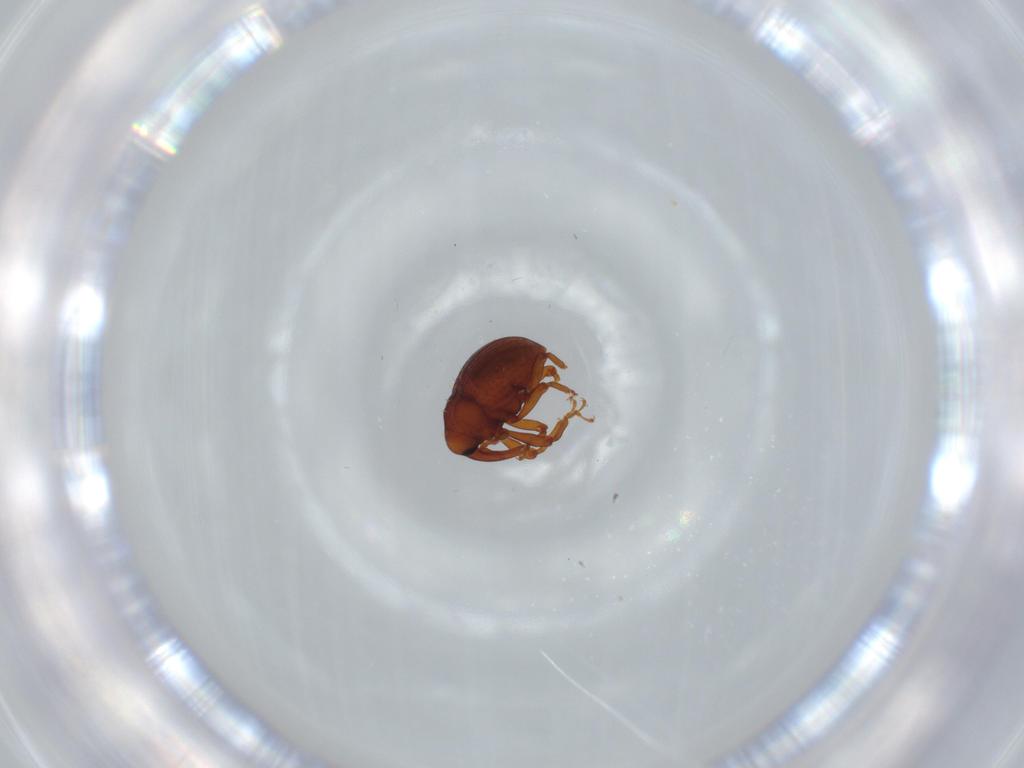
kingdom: Animalia
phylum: Arthropoda
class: Insecta
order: Coleoptera
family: Curculionidae
